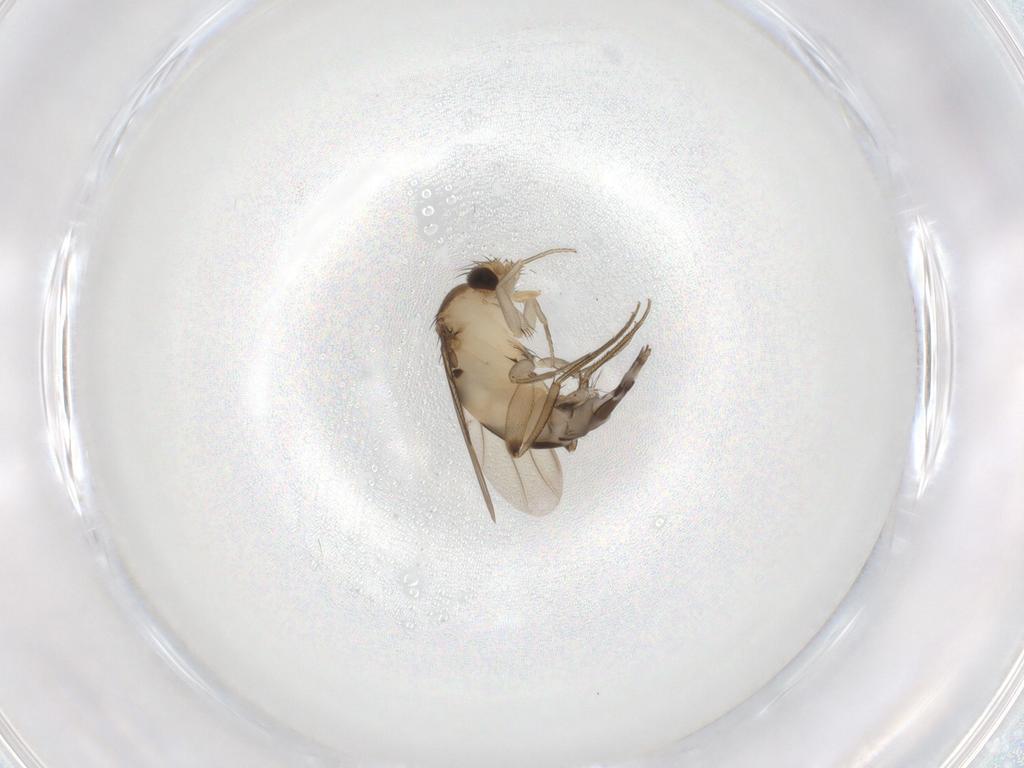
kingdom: Animalia
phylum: Arthropoda
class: Insecta
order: Diptera
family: Phoridae
